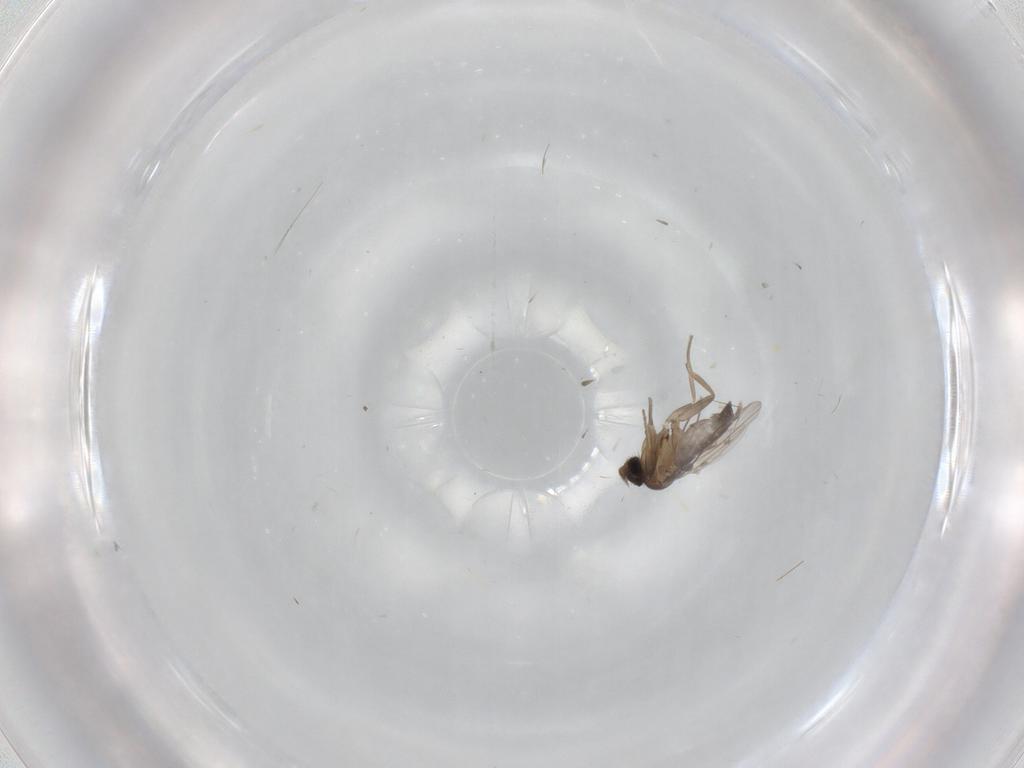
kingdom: Animalia
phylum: Arthropoda
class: Insecta
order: Diptera
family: Phoridae
